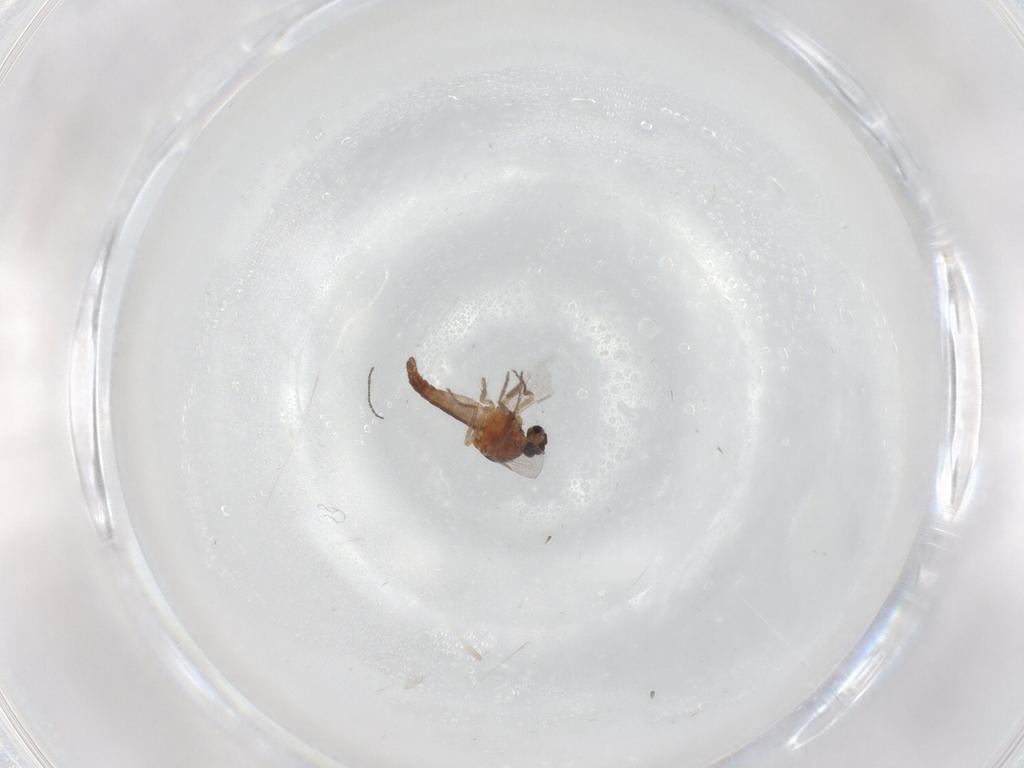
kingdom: Animalia
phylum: Arthropoda
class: Insecta
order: Diptera
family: Ceratopogonidae
